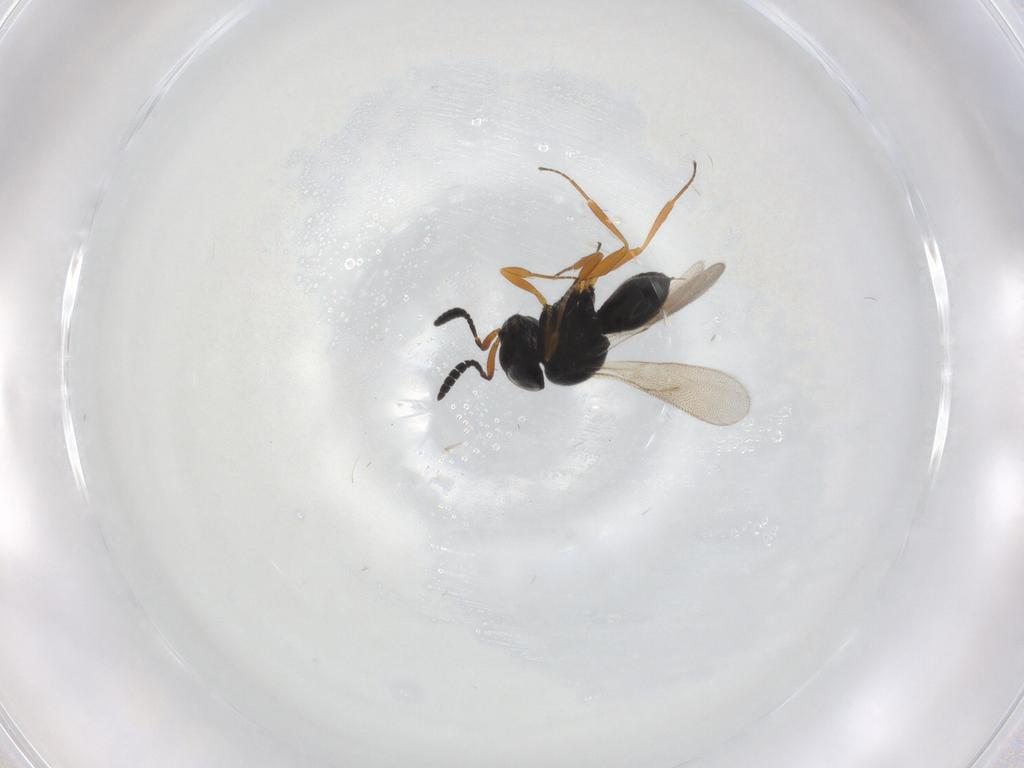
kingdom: Animalia
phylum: Arthropoda
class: Insecta
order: Hymenoptera
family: Scelionidae
